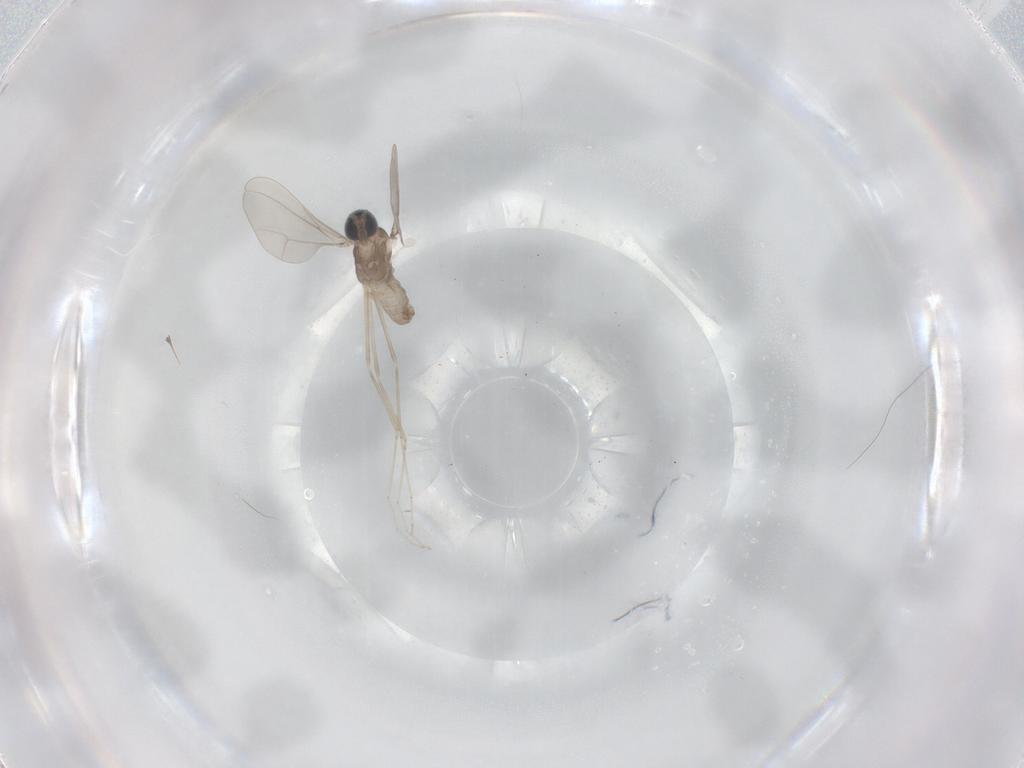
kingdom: Animalia
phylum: Arthropoda
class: Insecta
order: Diptera
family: Cecidomyiidae
